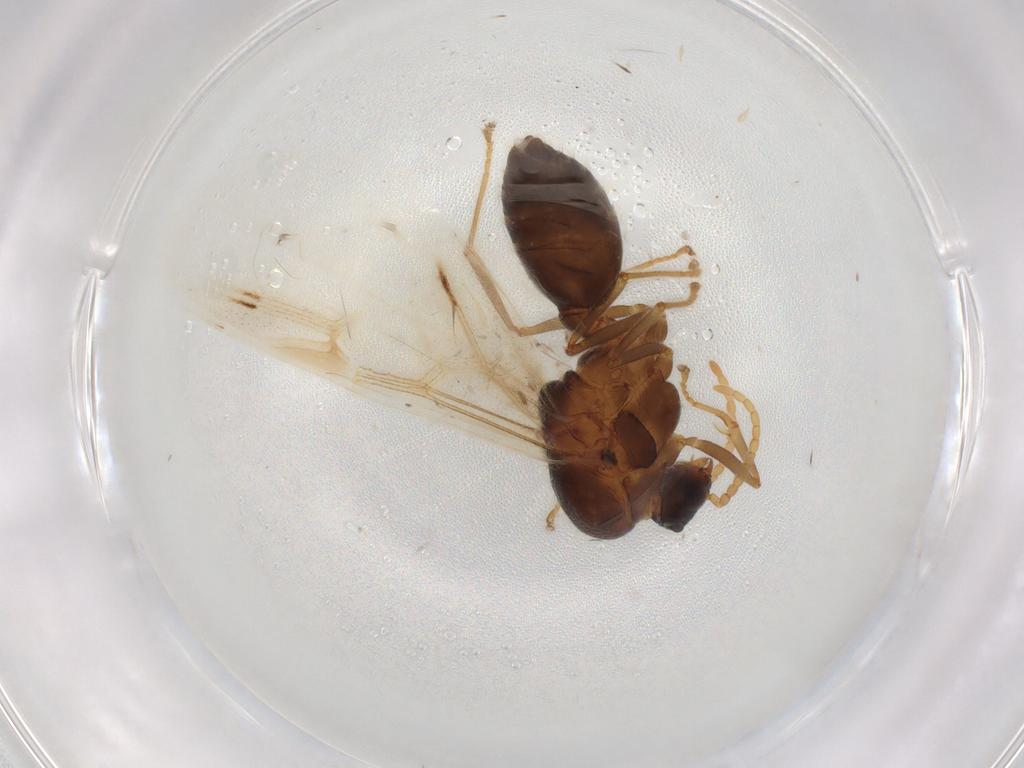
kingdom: Animalia
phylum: Arthropoda
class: Insecta
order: Hymenoptera
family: Formicidae
